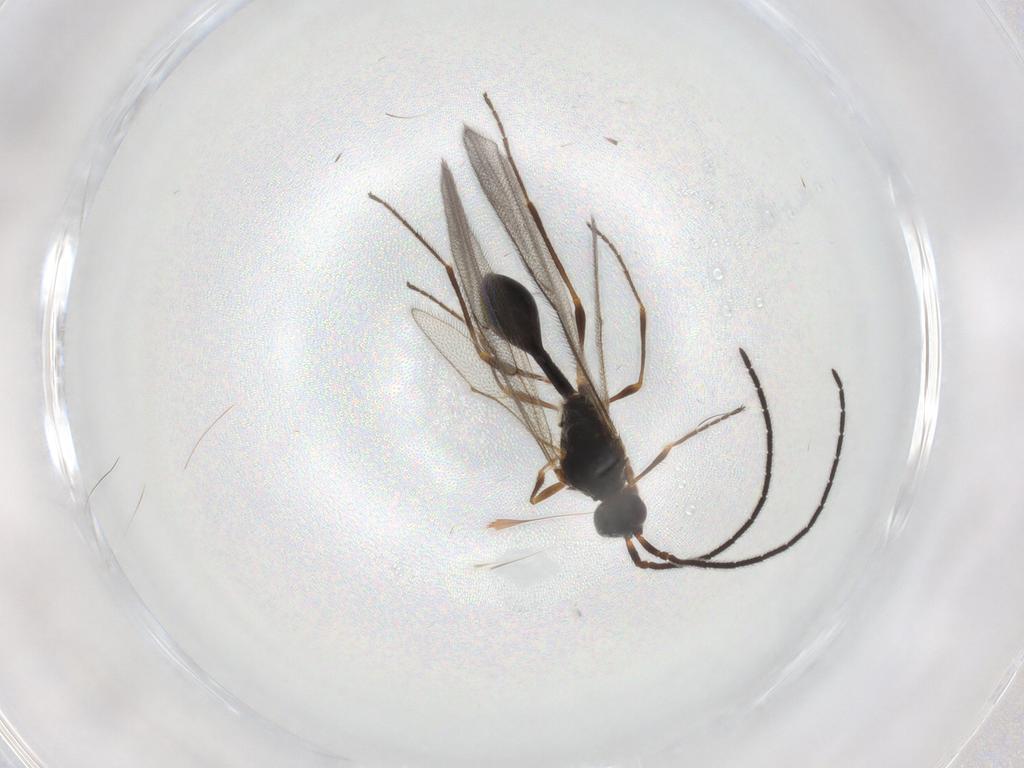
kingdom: Animalia
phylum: Arthropoda
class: Insecta
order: Hymenoptera
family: Diapriidae
